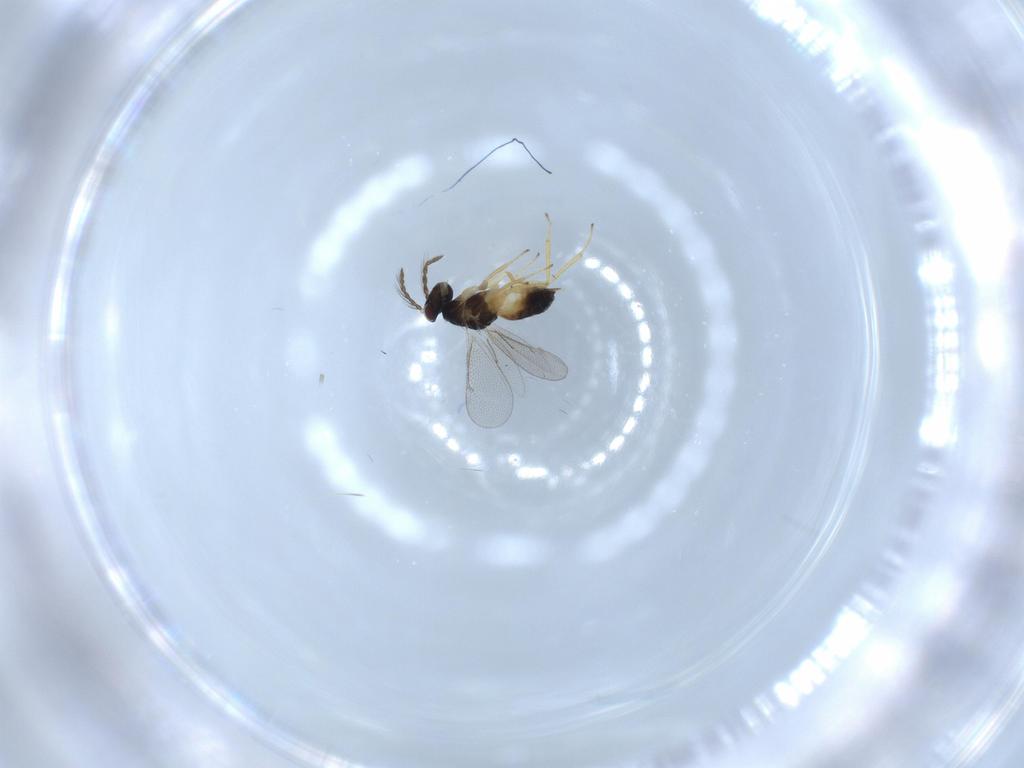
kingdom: Animalia
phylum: Arthropoda
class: Insecta
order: Hymenoptera
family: Eulophidae
